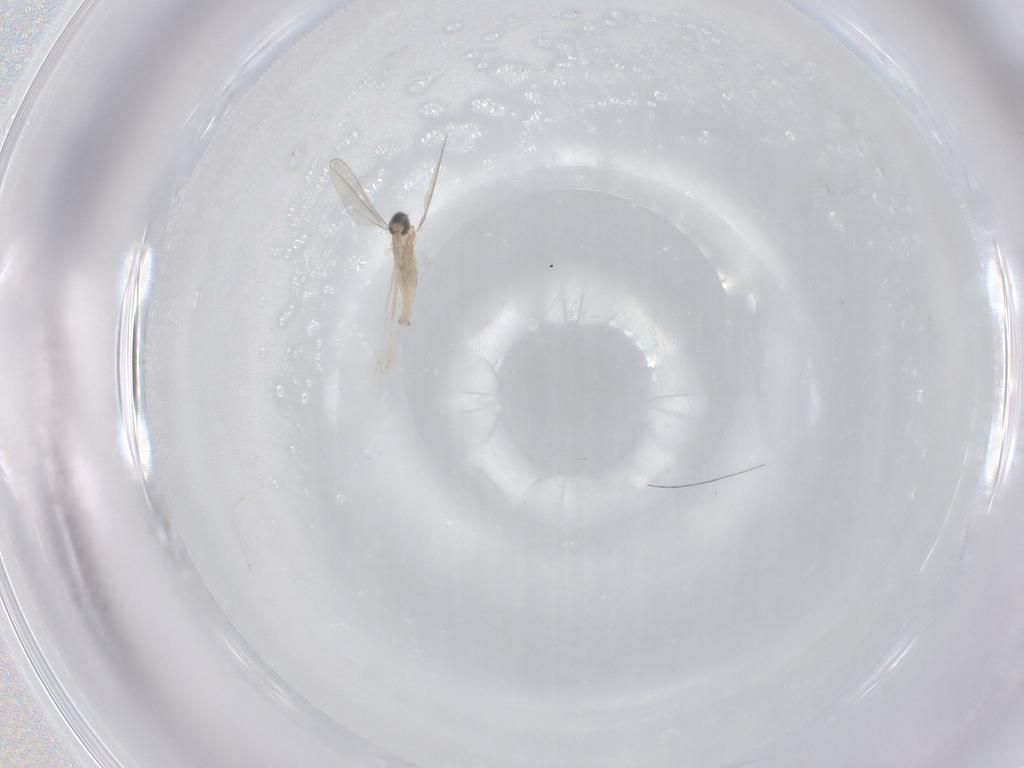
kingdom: Animalia
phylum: Arthropoda
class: Insecta
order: Diptera
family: Cecidomyiidae
